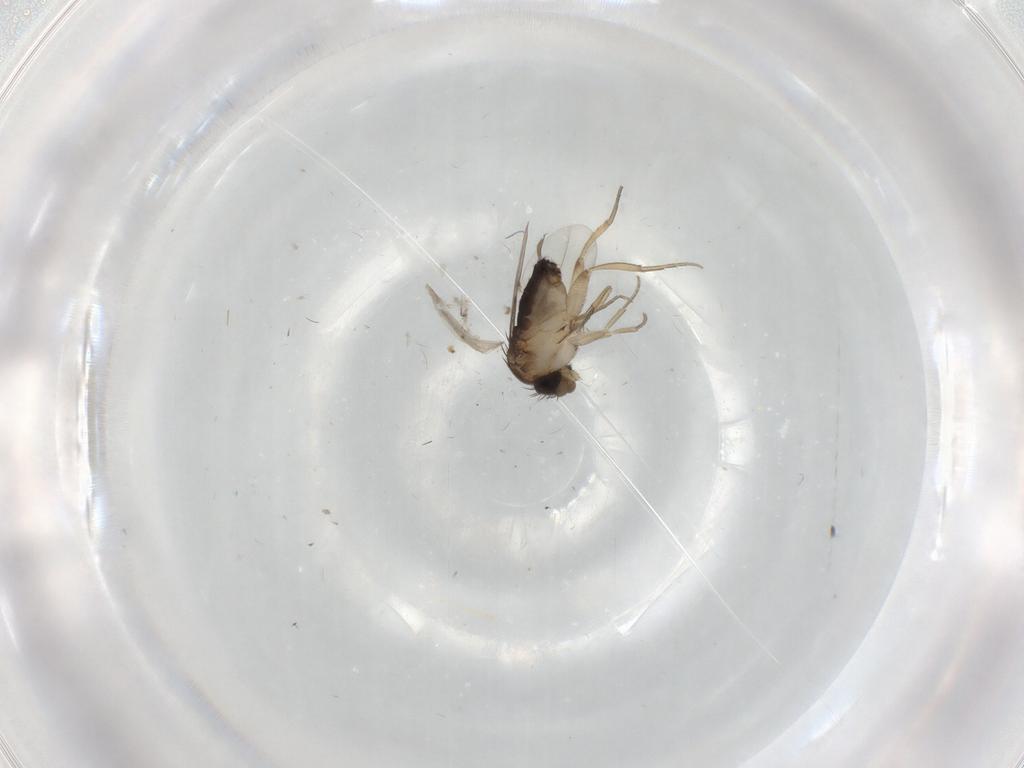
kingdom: Animalia
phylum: Arthropoda
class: Insecta
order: Diptera
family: Cecidomyiidae
